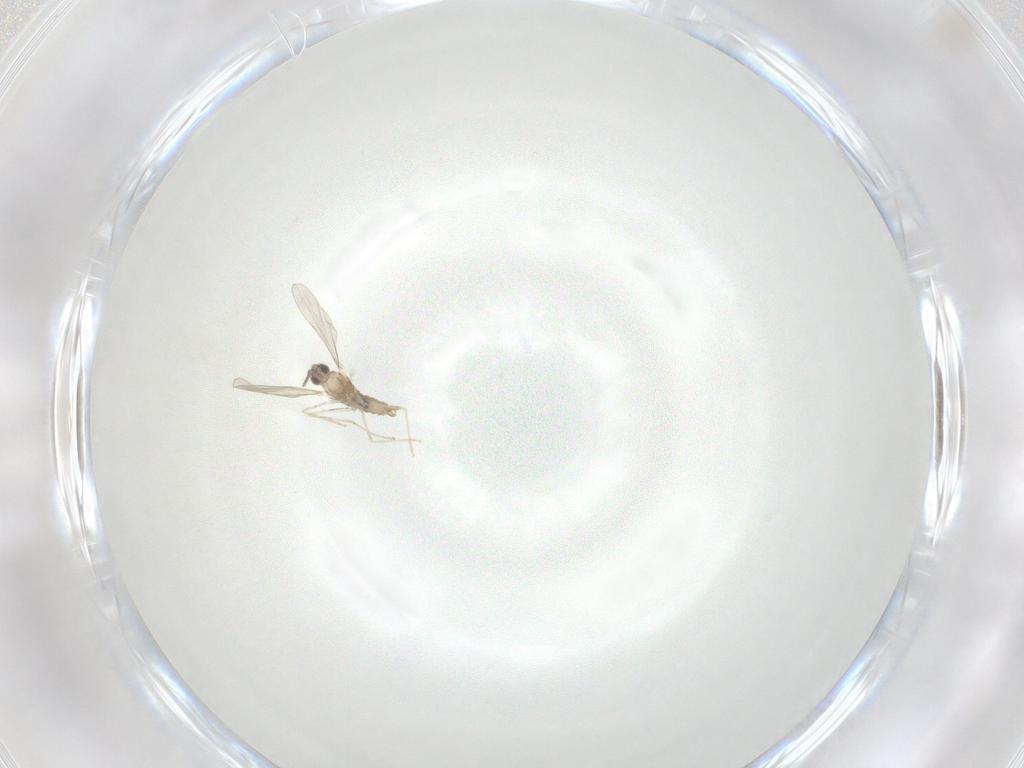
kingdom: Animalia
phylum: Arthropoda
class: Insecta
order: Diptera
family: Cecidomyiidae
